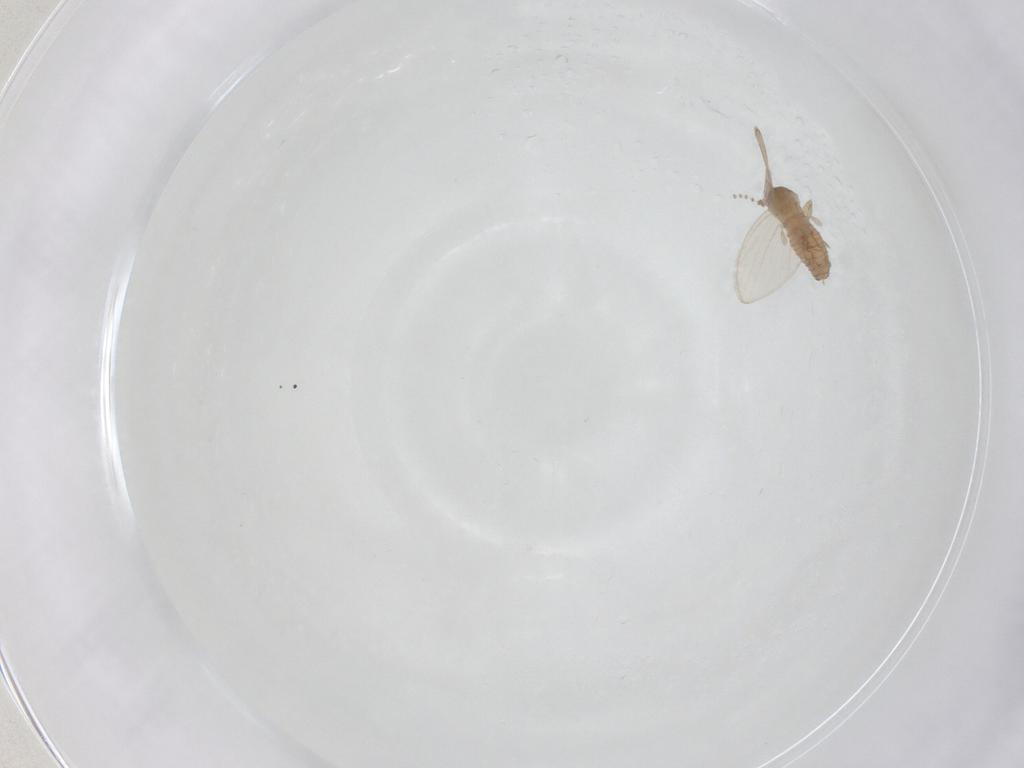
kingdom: Animalia
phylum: Arthropoda
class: Insecta
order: Diptera
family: Psychodidae
